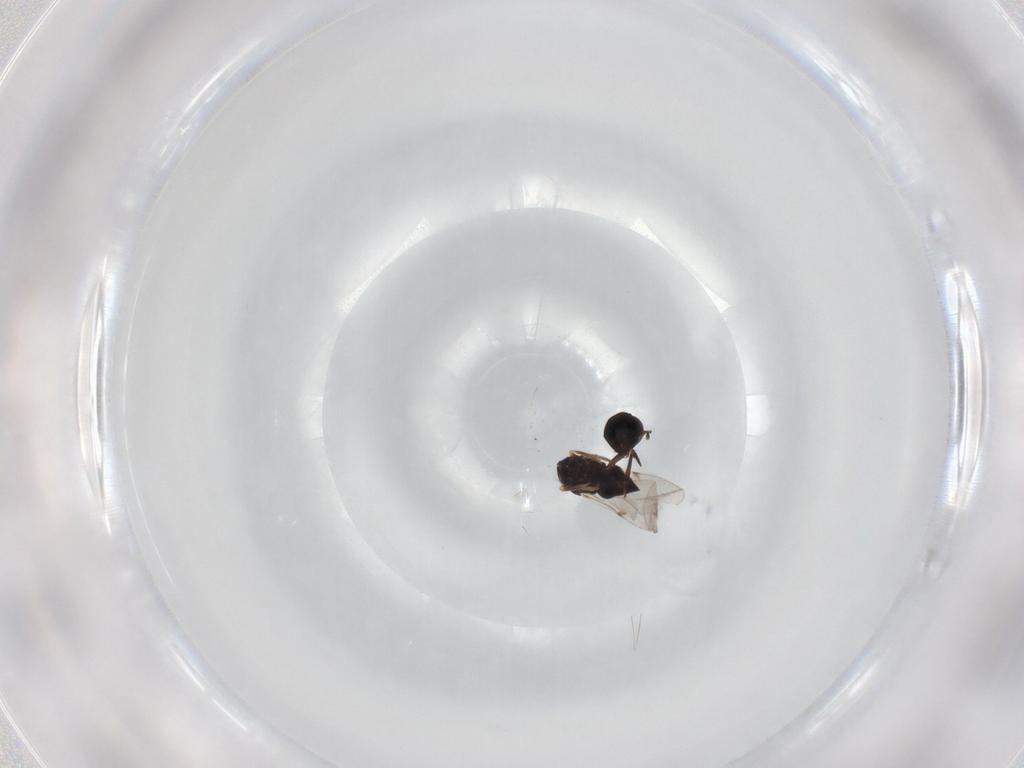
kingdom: Animalia
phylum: Arthropoda
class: Insecta
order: Hymenoptera
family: Encyrtidae
